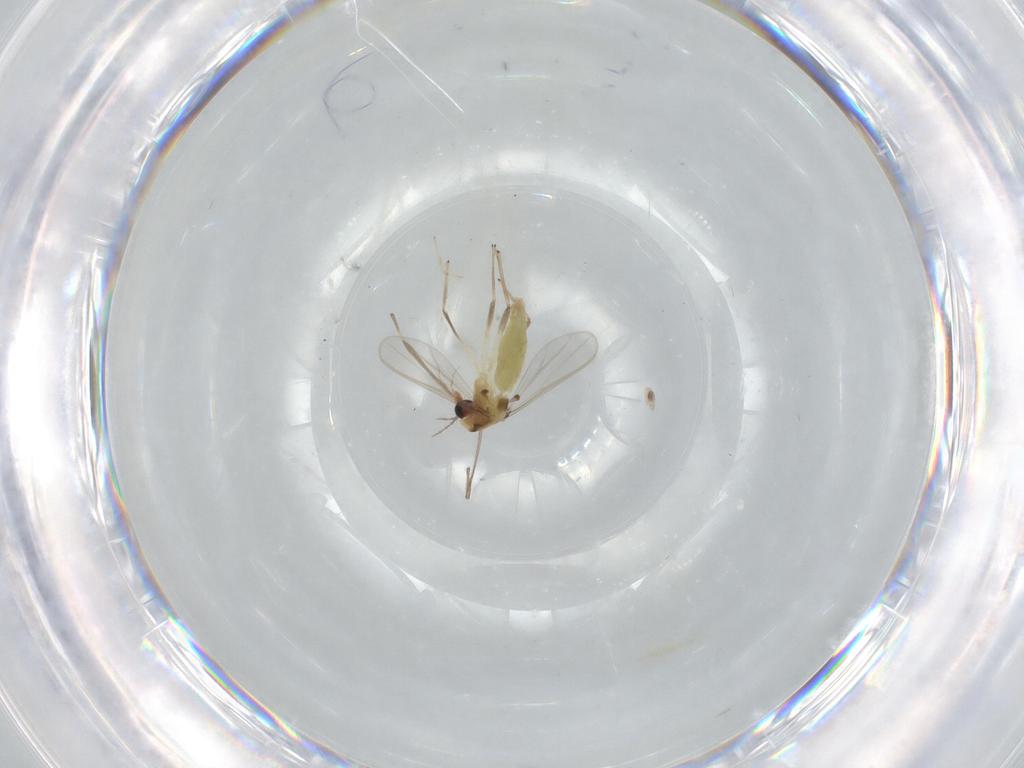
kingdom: Animalia
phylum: Arthropoda
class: Insecta
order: Diptera
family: Chironomidae
